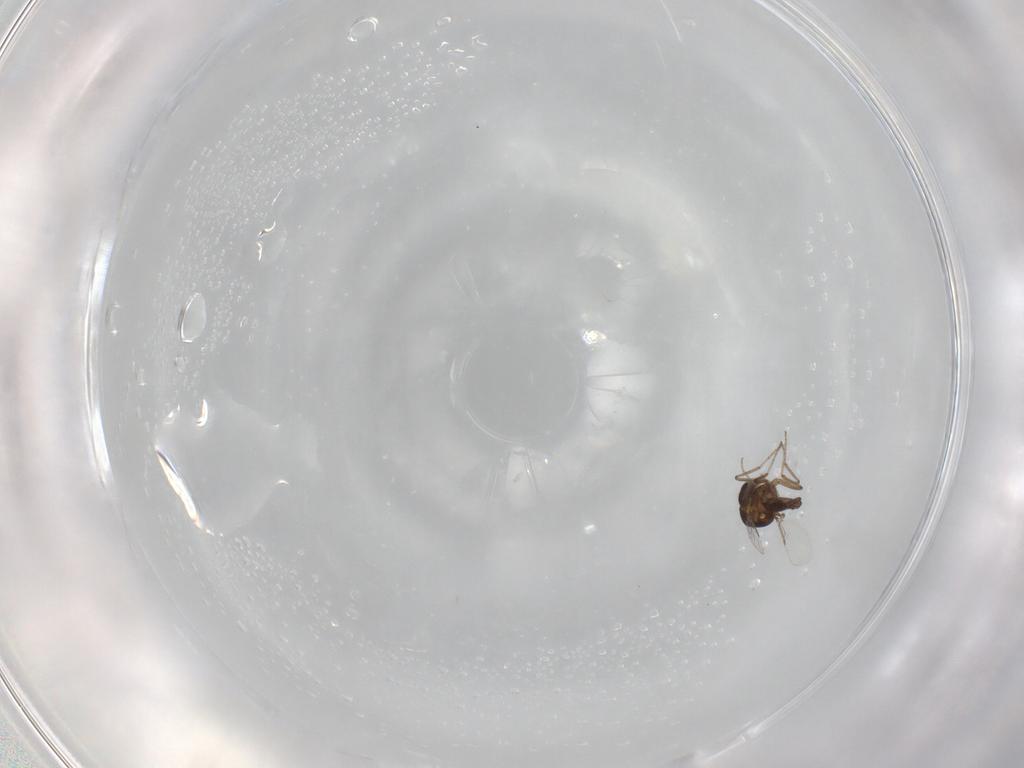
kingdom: Animalia
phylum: Arthropoda
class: Insecta
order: Diptera
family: Ceratopogonidae
